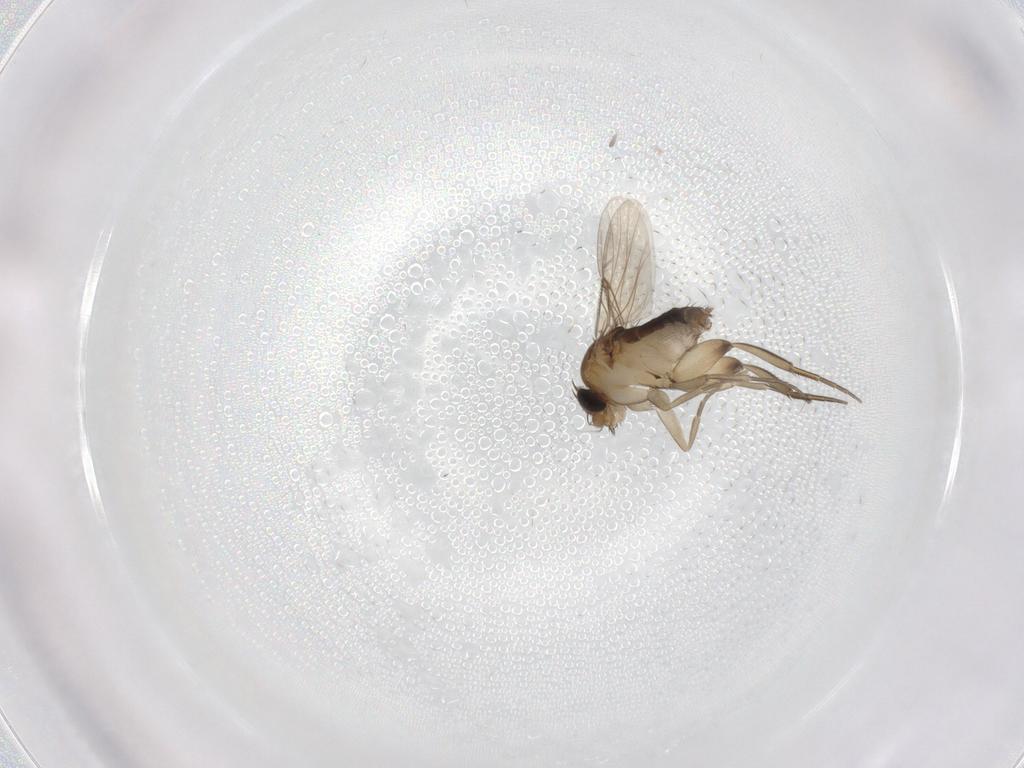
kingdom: Animalia
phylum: Arthropoda
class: Insecta
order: Diptera
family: Phoridae
